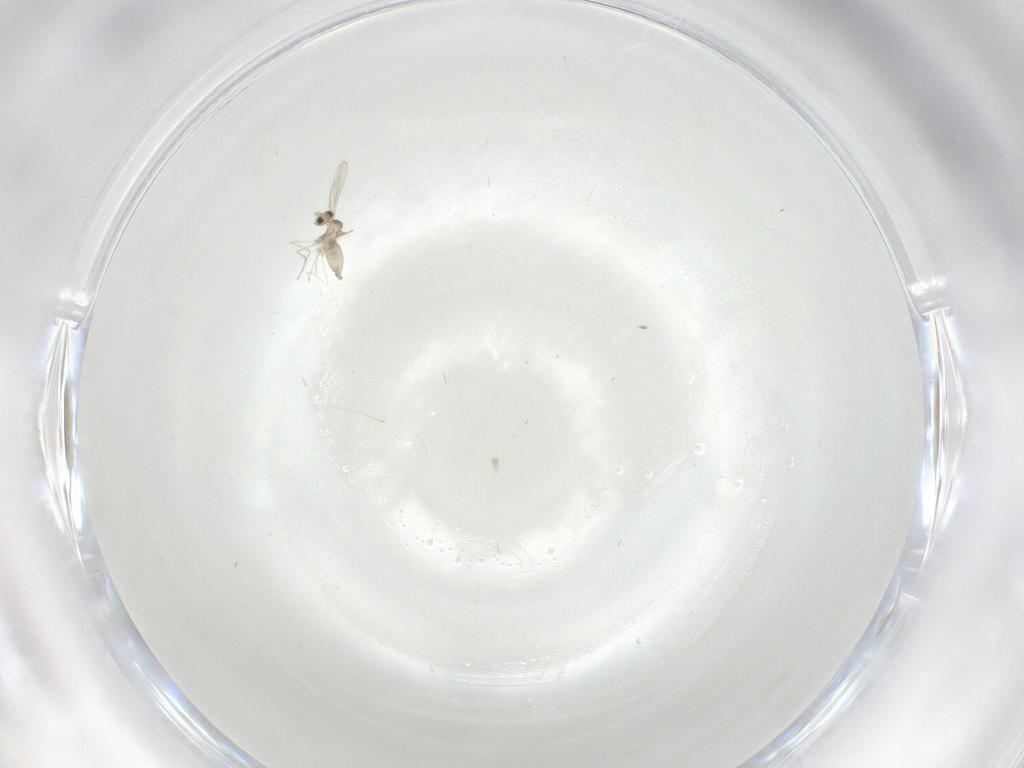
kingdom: Animalia
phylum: Arthropoda
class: Insecta
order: Diptera
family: Cecidomyiidae
